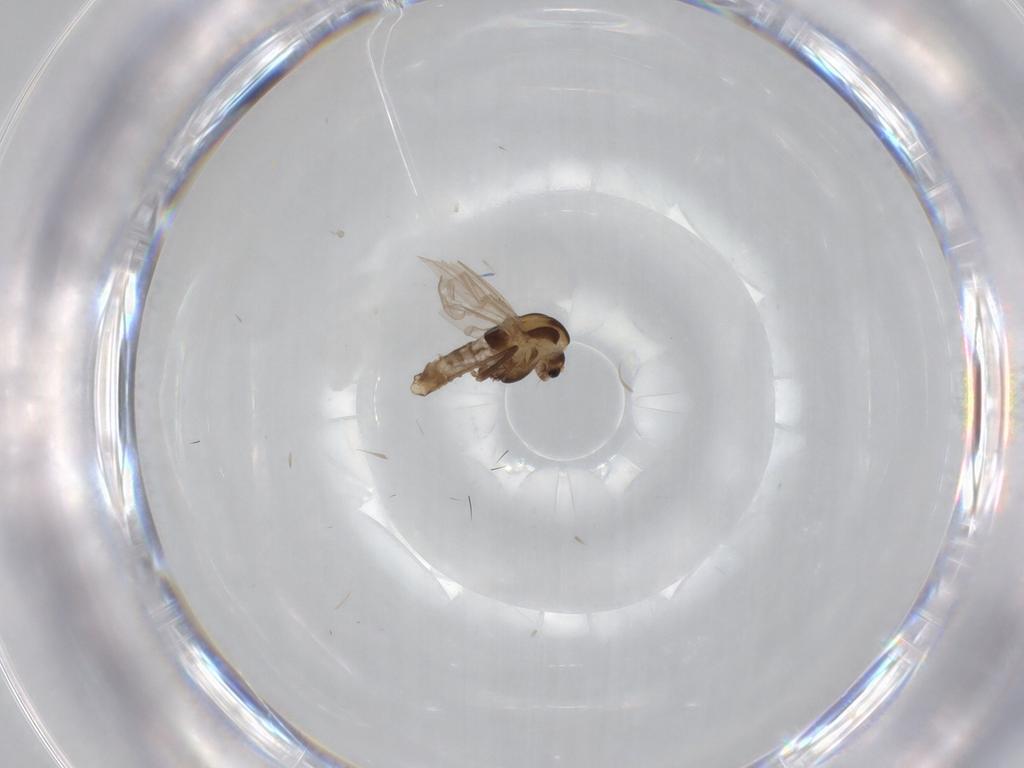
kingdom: Animalia
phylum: Arthropoda
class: Insecta
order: Diptera
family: Chironomidae
